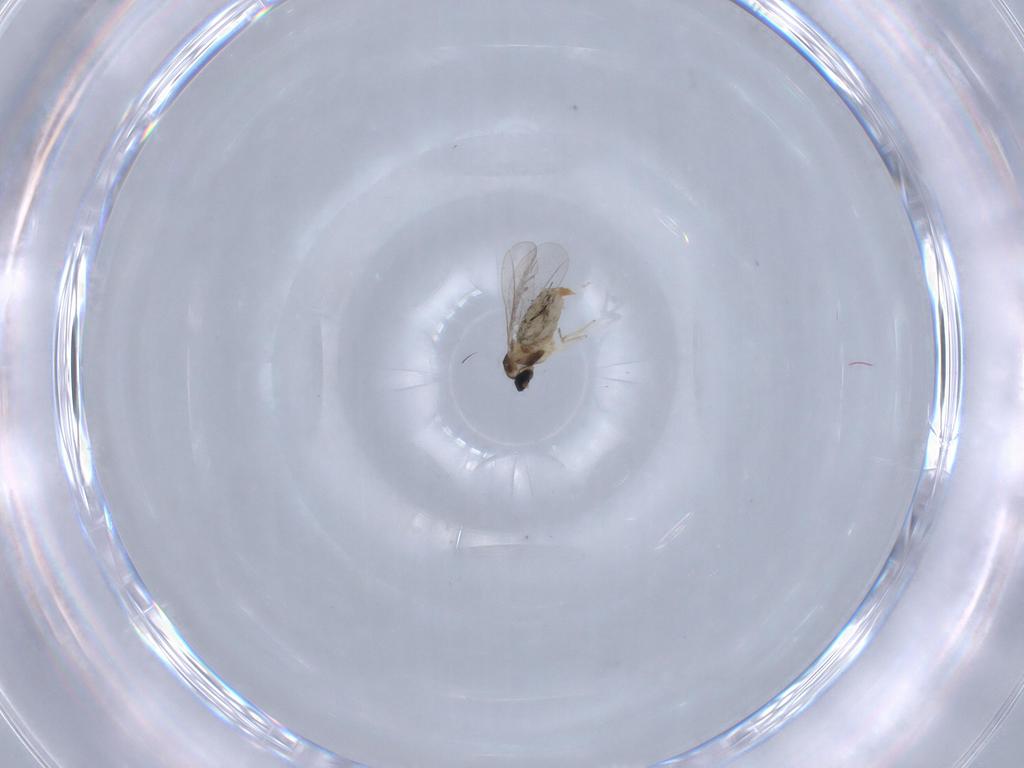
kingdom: Animalia
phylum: Arthropoda
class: Insecta
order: Diptera
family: Cecidomyiidae
